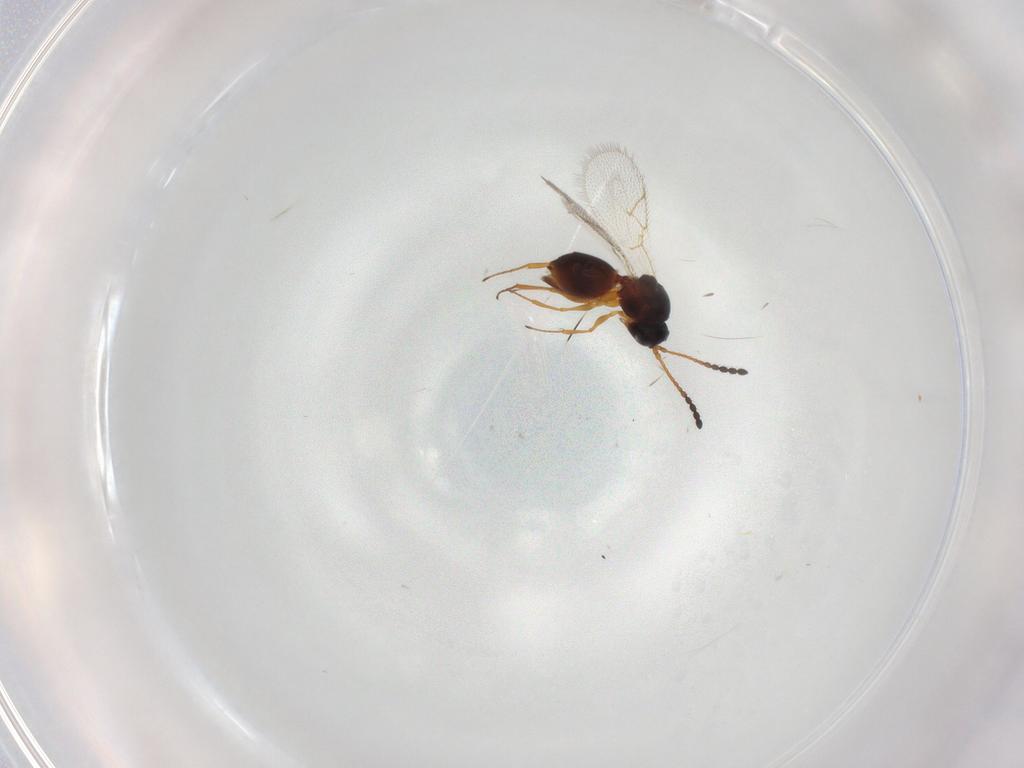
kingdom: Animalia
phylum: Arthropoda
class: Insecta
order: Hymenoptera
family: Figitidae
